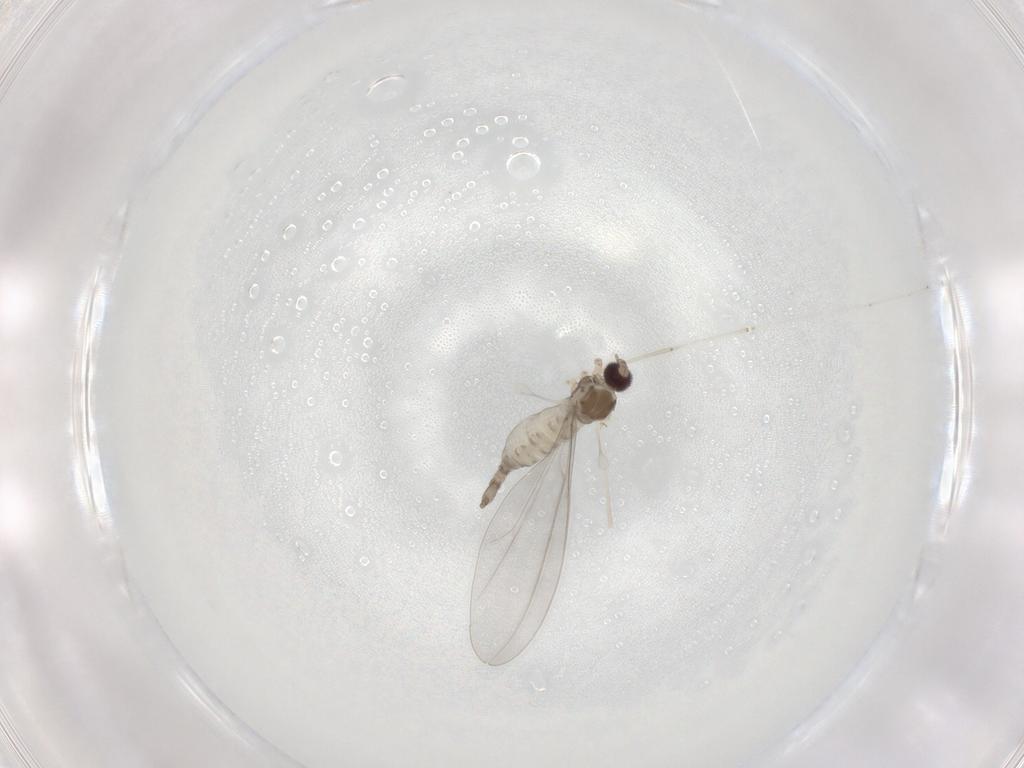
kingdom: Animalia
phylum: Arthropoda
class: Insecta
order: Diptera
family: Cecidomyiidae
